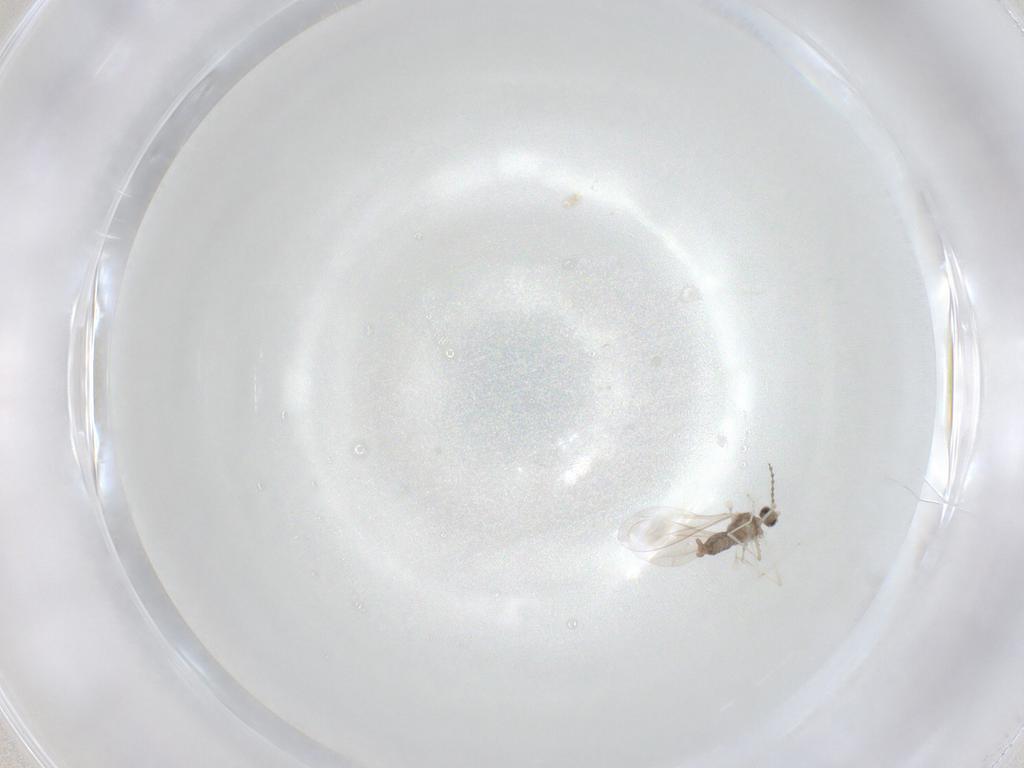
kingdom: Animalia
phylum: Arthropoda
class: Insecta
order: Diptera
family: Cecidomyiidae
